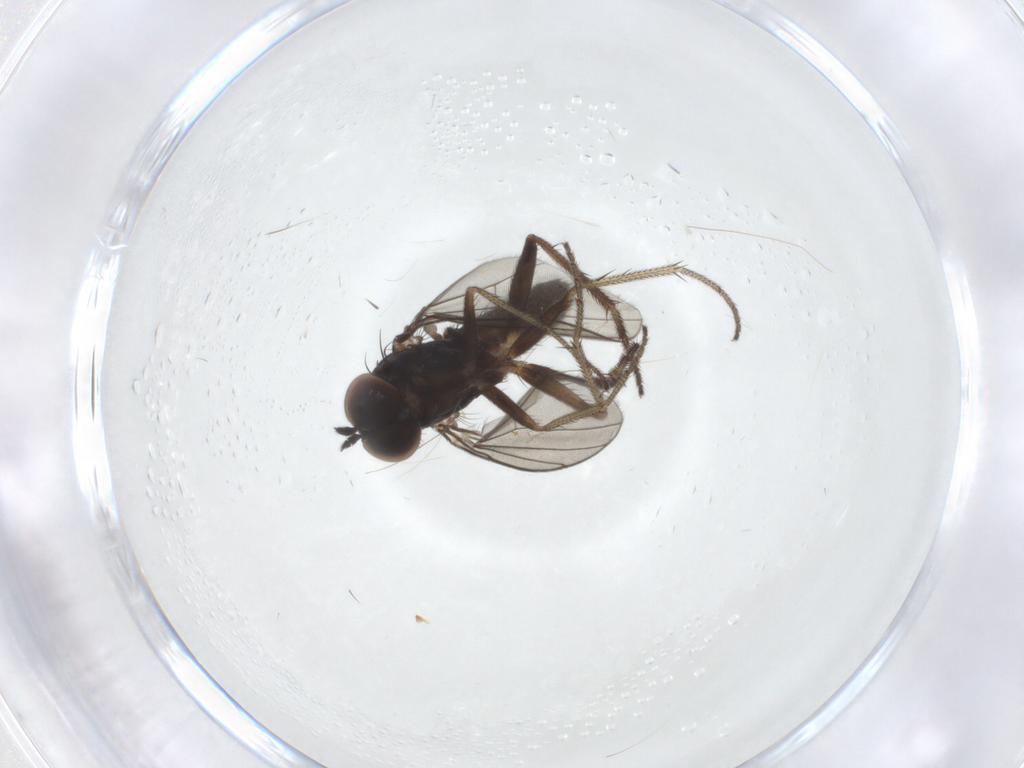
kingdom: Animalia
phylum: Arthropoda
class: Insecta
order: Diptera
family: Dolichopodidae
